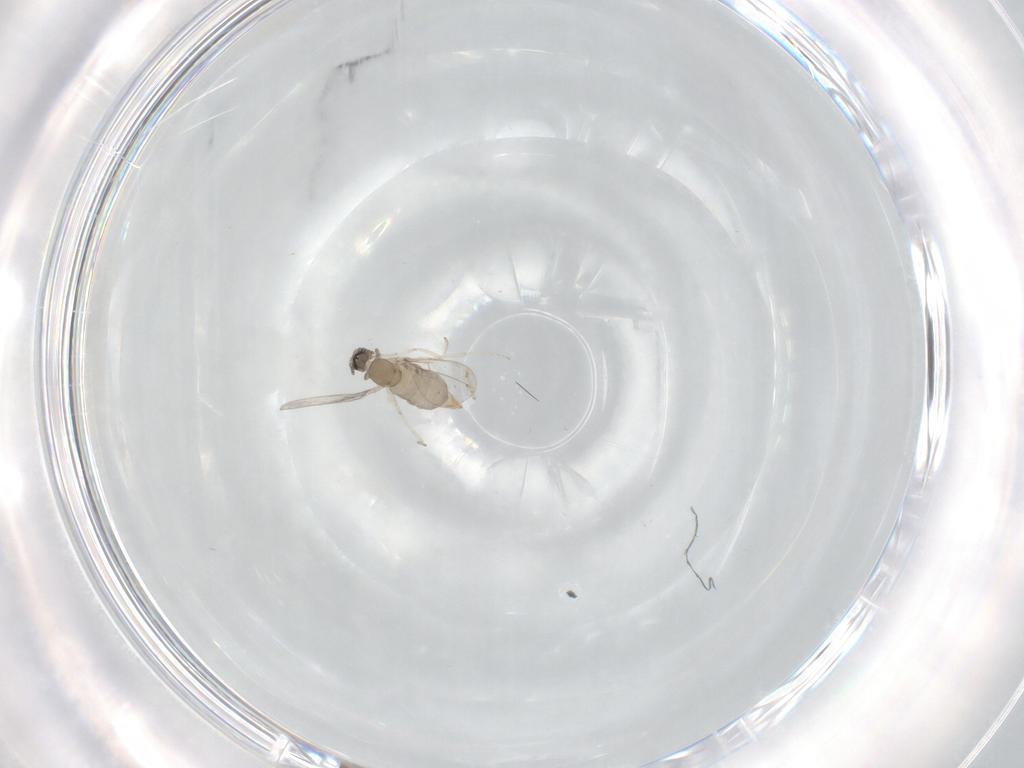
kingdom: Animalia
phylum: Arthropoda
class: Insecta
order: Diptera
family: Cecidomyiidae
